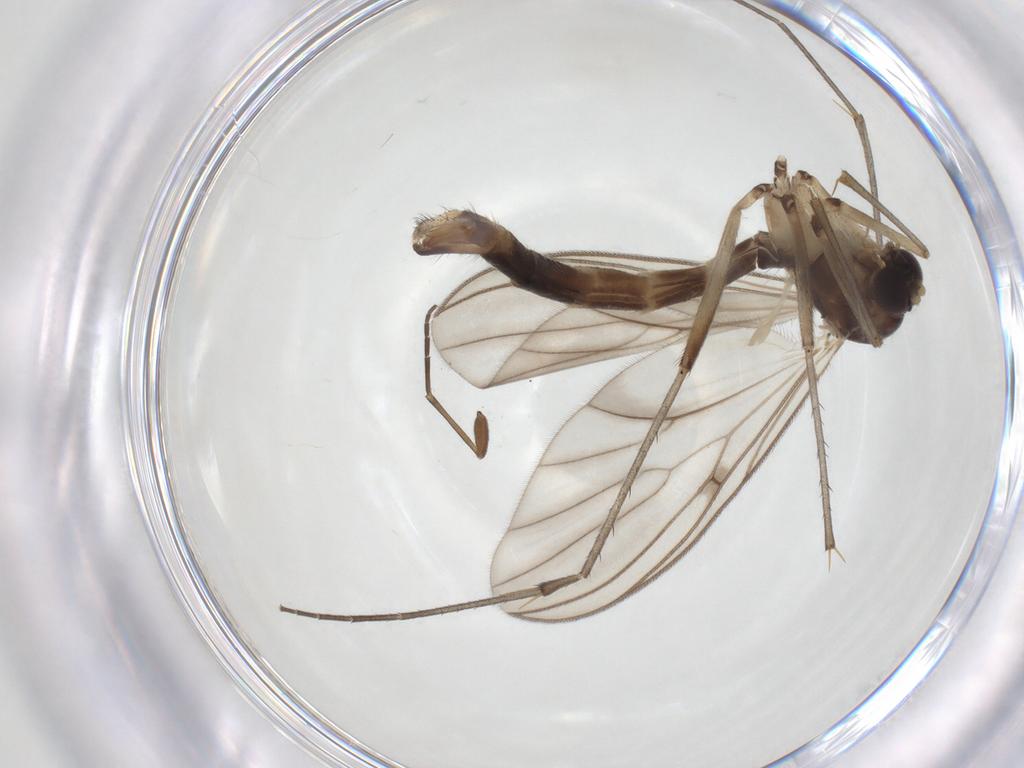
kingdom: Animalia
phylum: Arthropoda
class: Insecta
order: Diptera
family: Mycetophilidae
